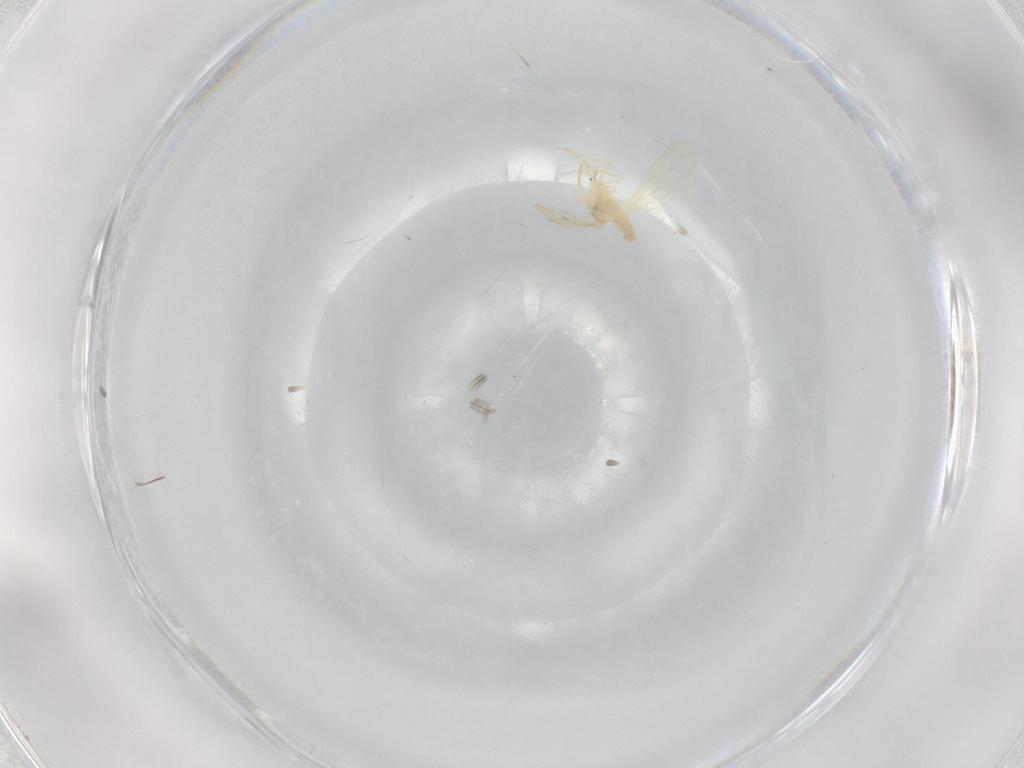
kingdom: Animalia
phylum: Arthropoda
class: Insecta
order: Hemiptera
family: Aleyrodidae
